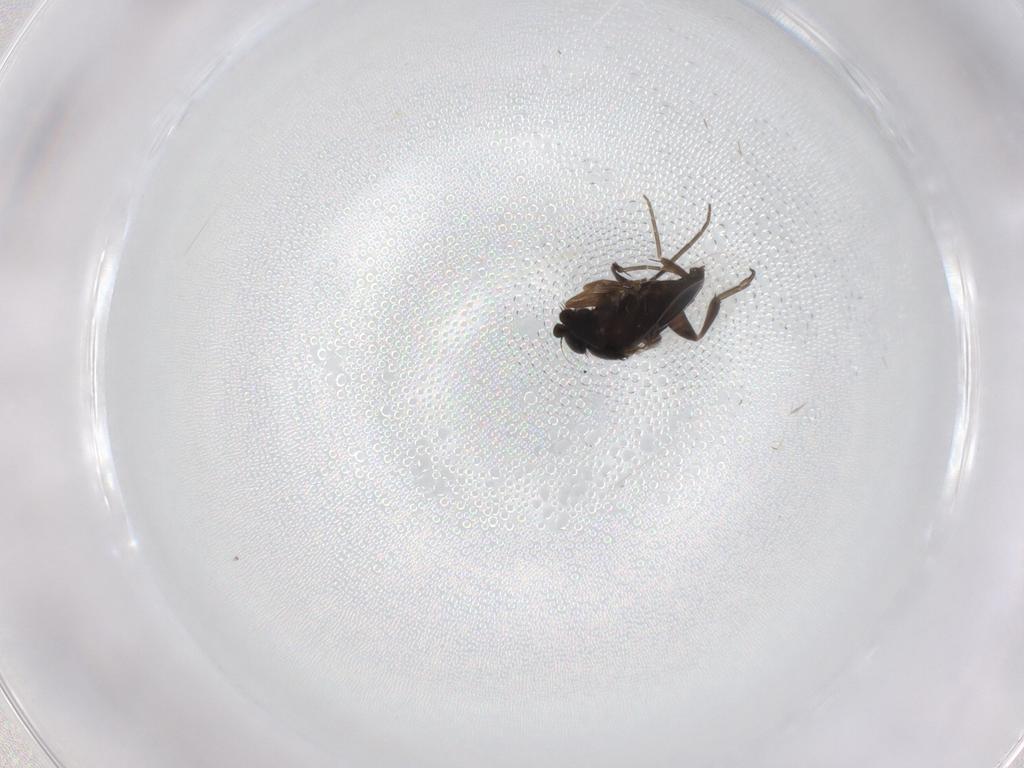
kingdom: Animalia
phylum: Arthropoda
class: Insecta
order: Diptera
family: Phoridae
